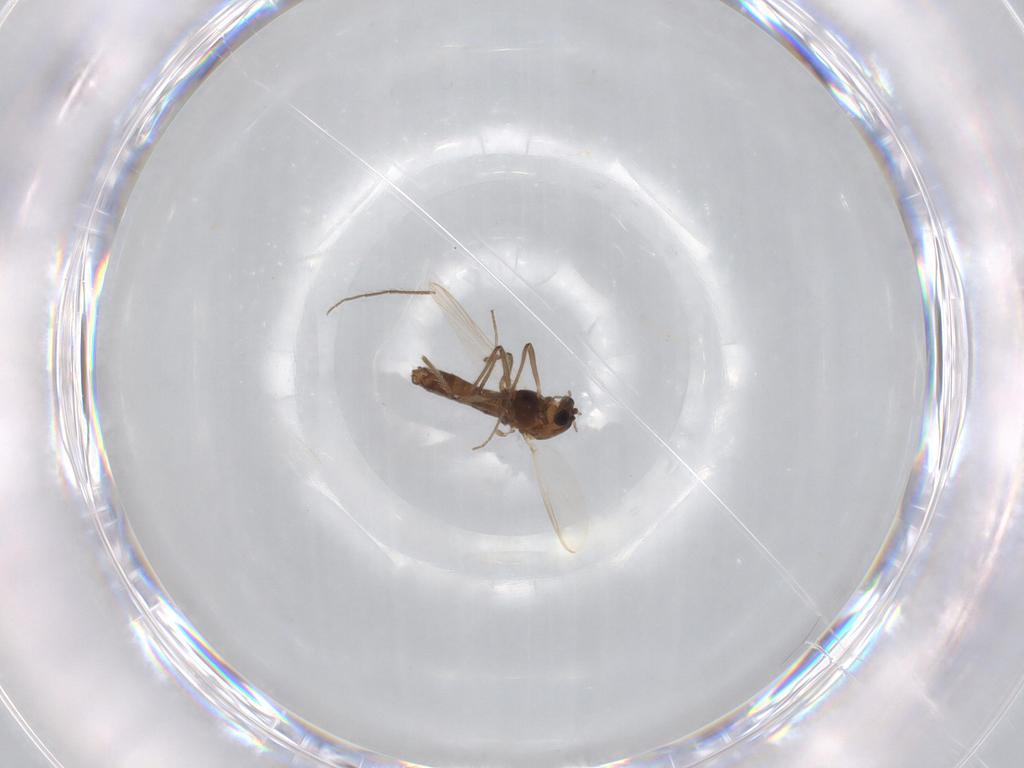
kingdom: Animalia
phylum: Arthropoda
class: Insecta
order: Diptera
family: Chironomidae
